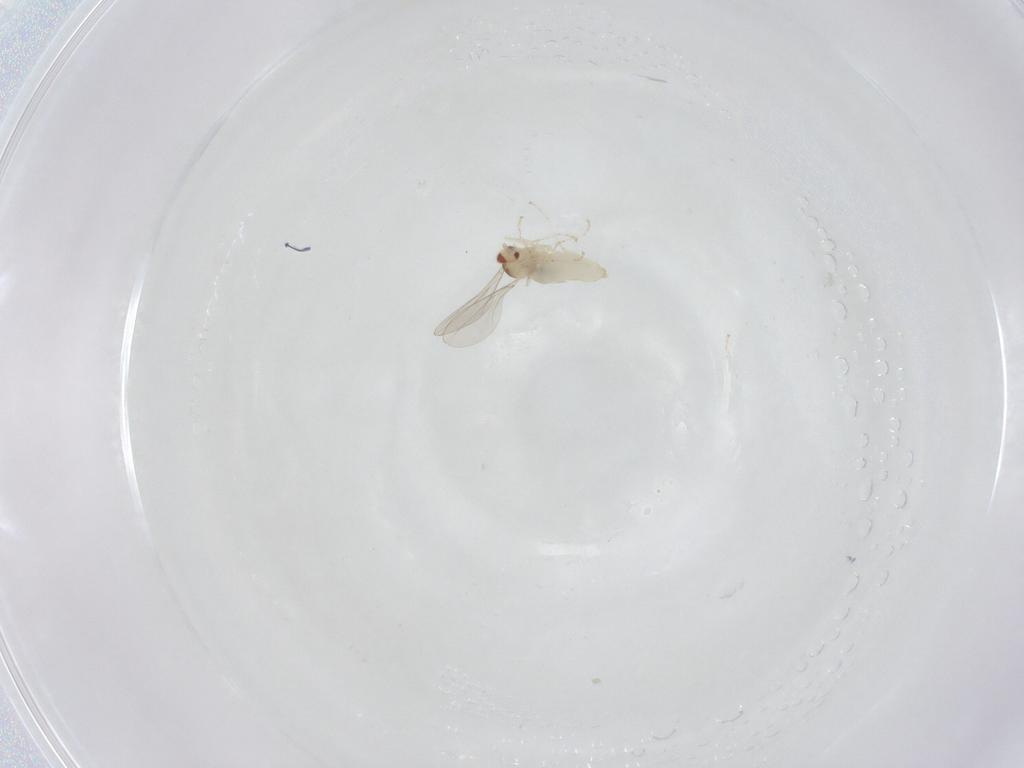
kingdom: Animalia
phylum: Arthropoda
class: Insecta
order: Diptera
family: Cecidomyiidae
